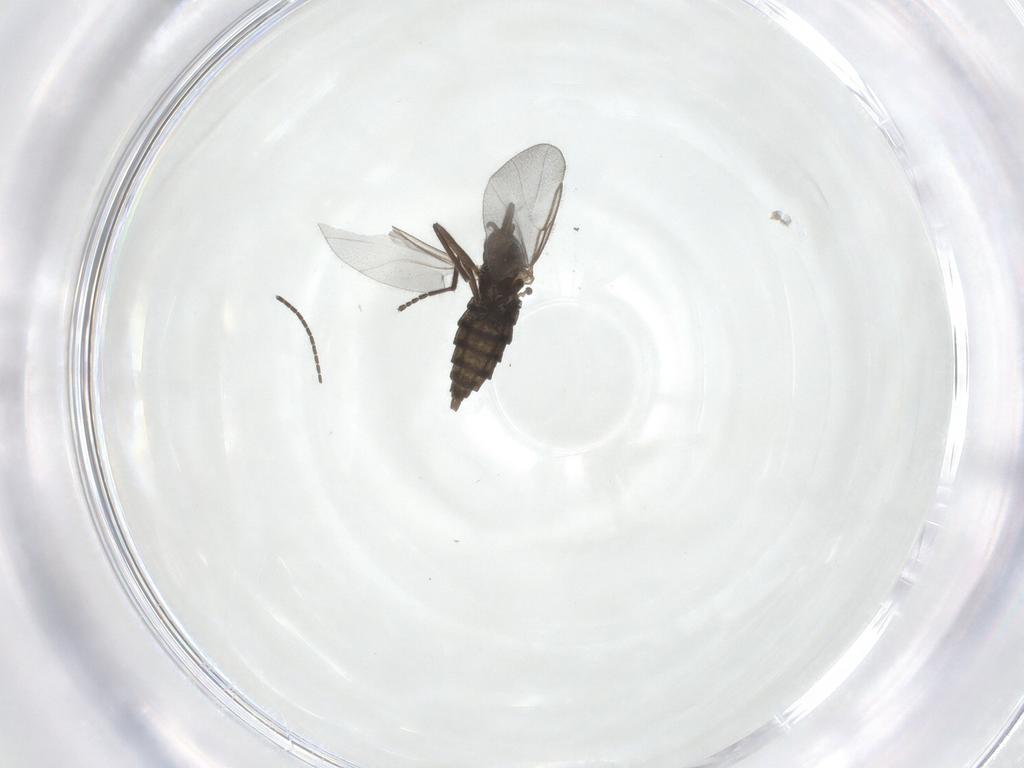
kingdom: Animalia
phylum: Arthropoda
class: Insecta
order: Diptera
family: Cecidomyiidae
